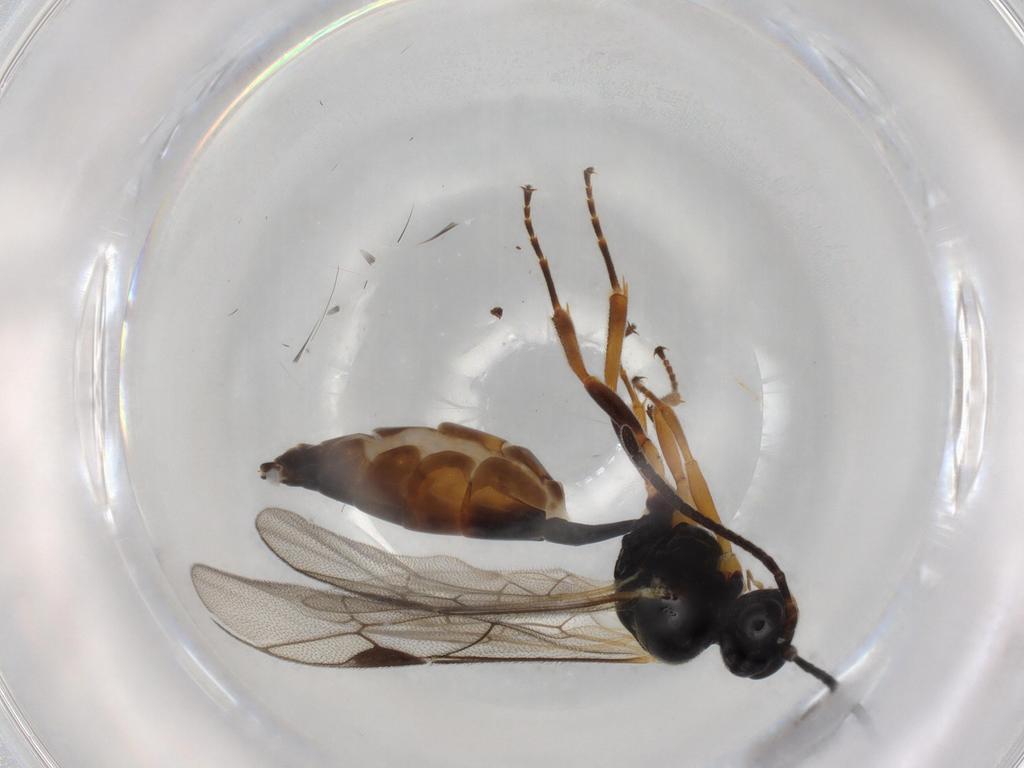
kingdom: Animalia
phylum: Arthropoda
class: Insecta
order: Hymenoptera
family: Ichneumonidae
